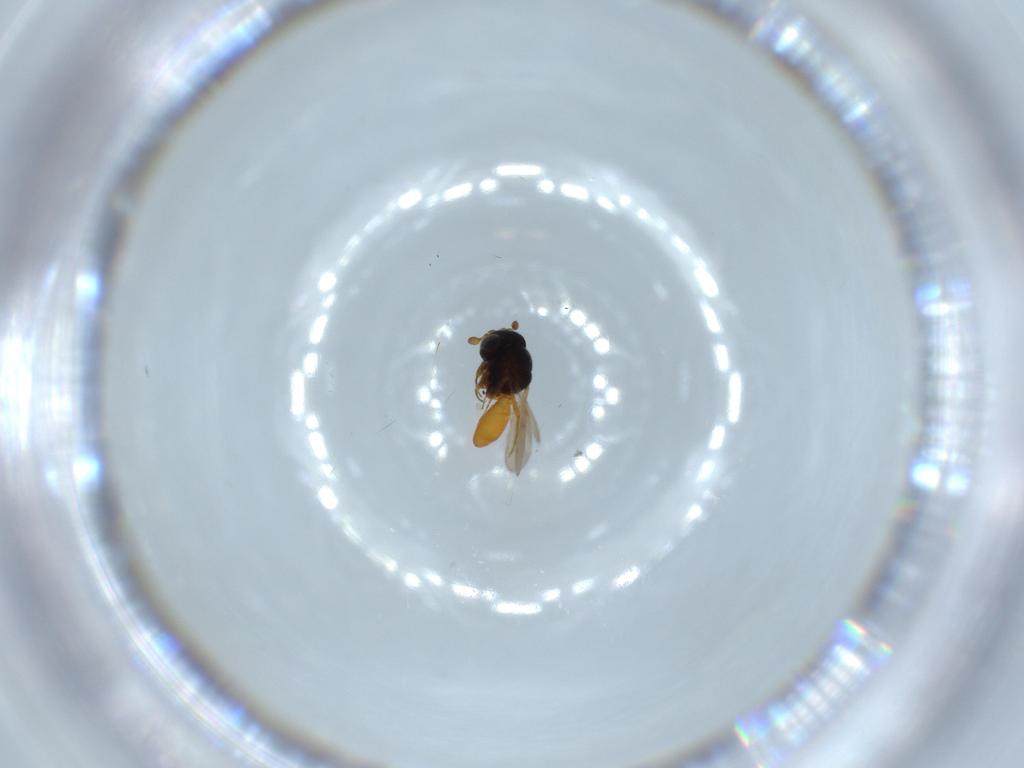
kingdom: Animalia
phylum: Arthropoda
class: Insecta
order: Hymenoptera
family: Scelionidae
